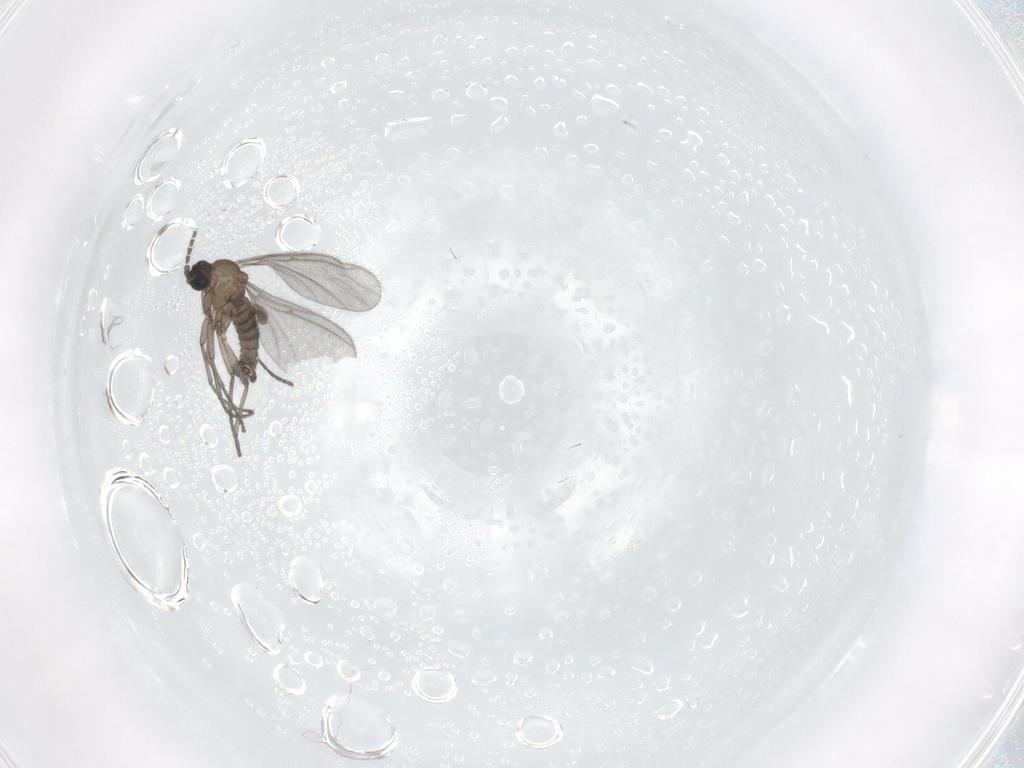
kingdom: Animalia
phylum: Arthropoda
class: Insecta
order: Diptera
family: Sciaridae
